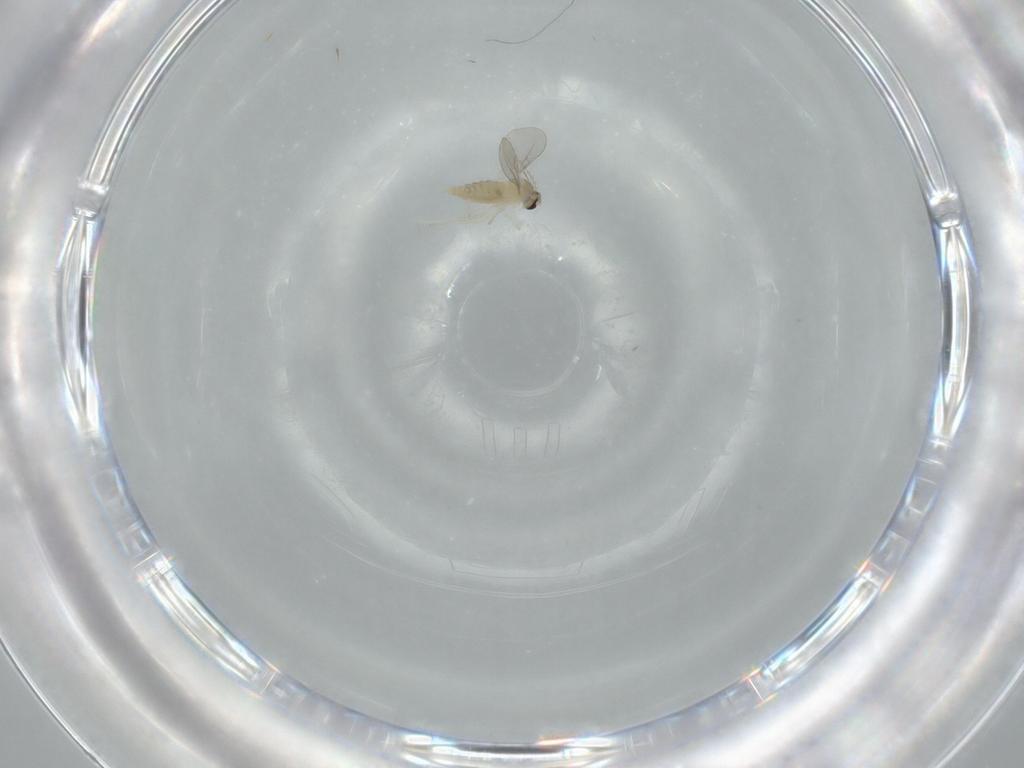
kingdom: Animalia
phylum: Arthropoda
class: Insecta
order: Diptera
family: Cecidomyiidae
